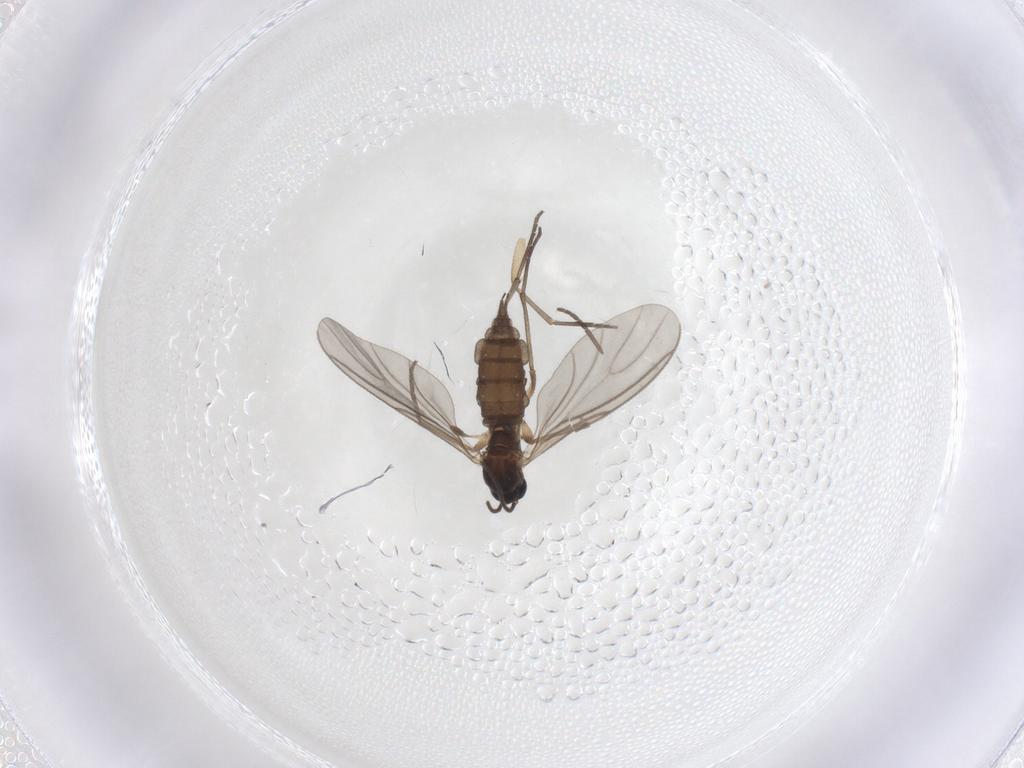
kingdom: Animalia
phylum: Arthropoda
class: Insecta
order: Diptera
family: Sciaridae
